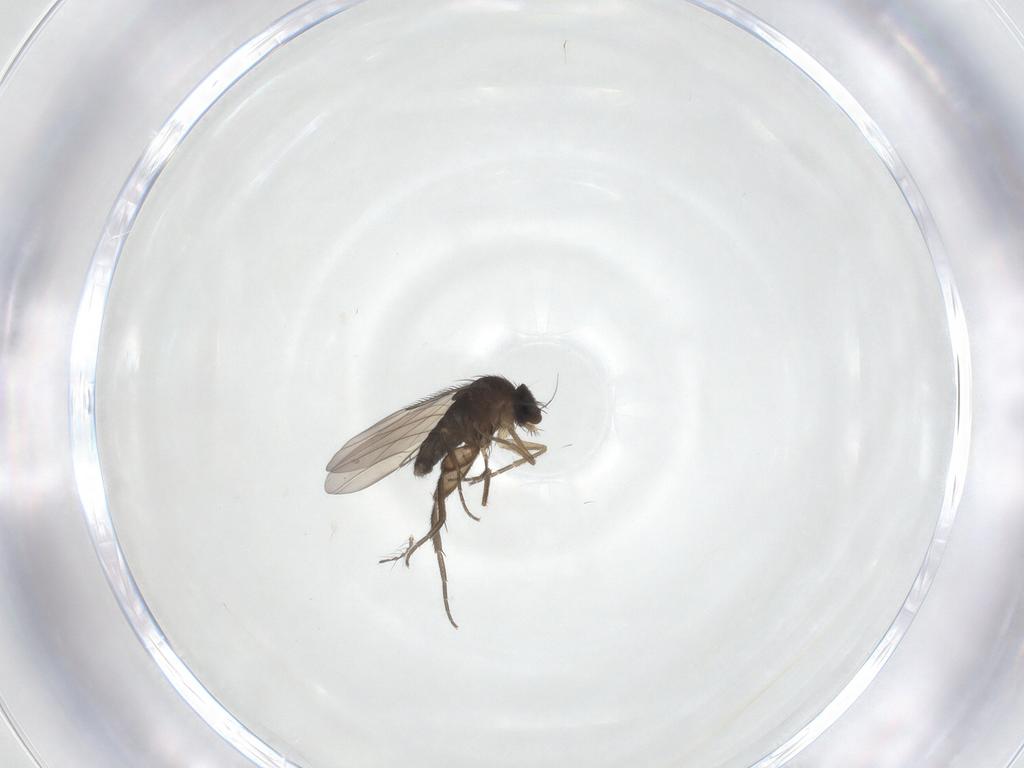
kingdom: Animalia
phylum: Arthropoda
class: Insecta
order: Diptera
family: Phoridae
